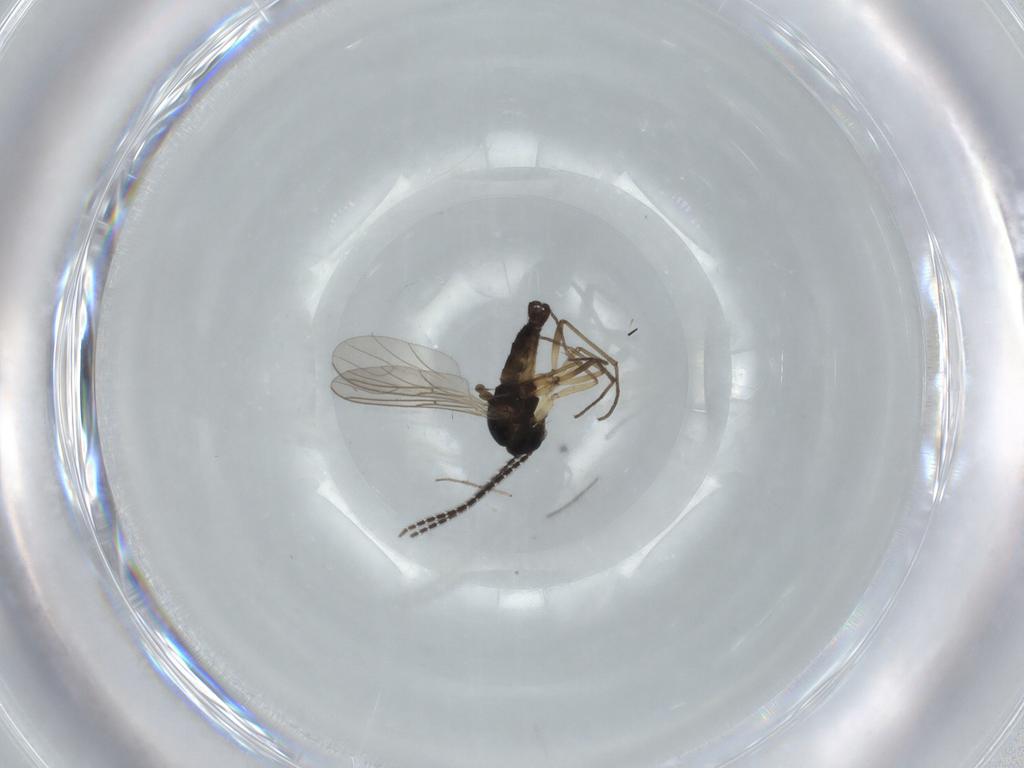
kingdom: Animalia
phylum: Arthropoda
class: Insecta
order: Diptera
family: Sciaridae
